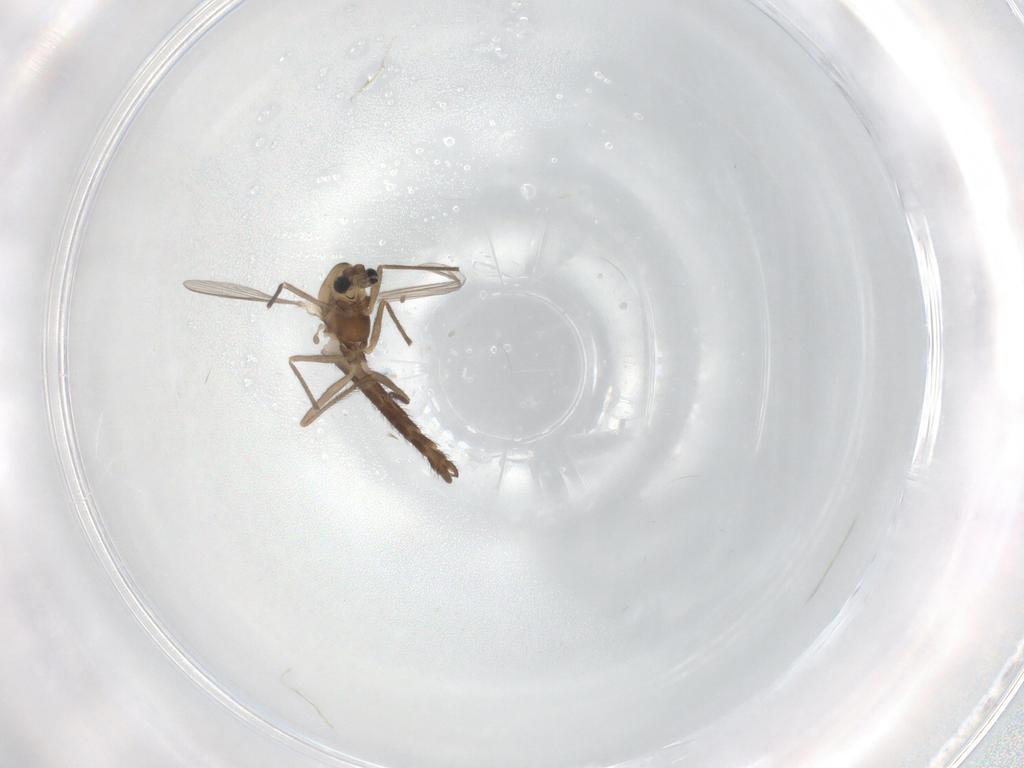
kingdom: Animalia
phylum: Arthropoda
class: Insecta
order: Diptera
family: Chironomidae
